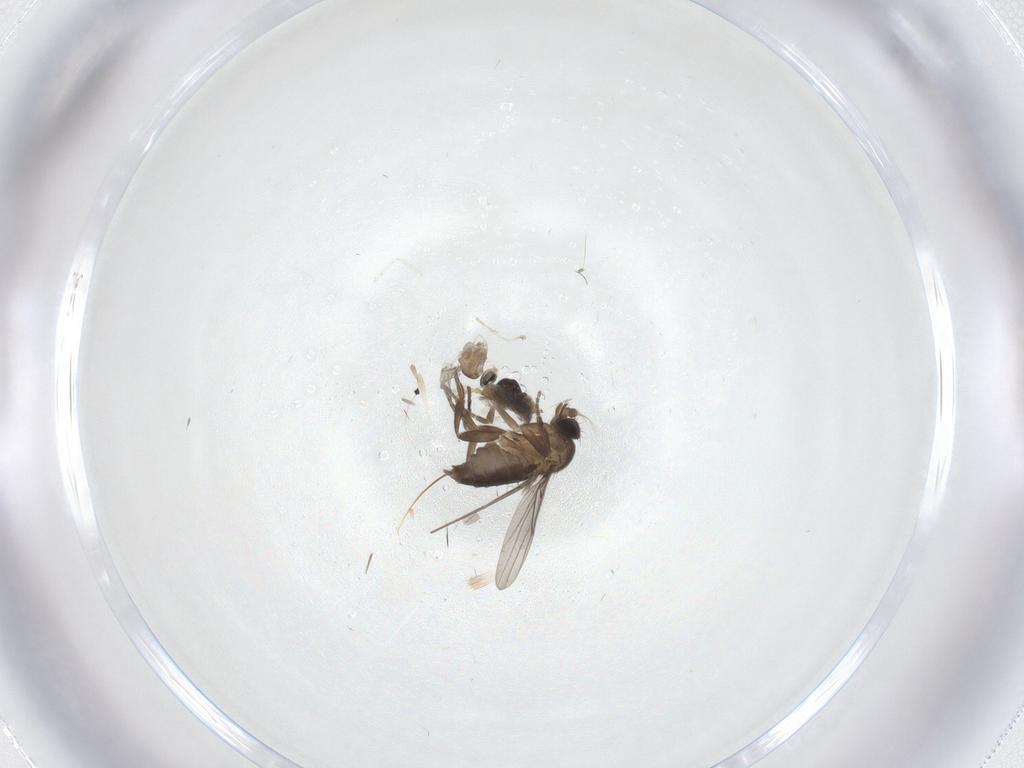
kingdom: Animalia
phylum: Arthropoda
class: Insecta
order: Diptera
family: Phoridae
